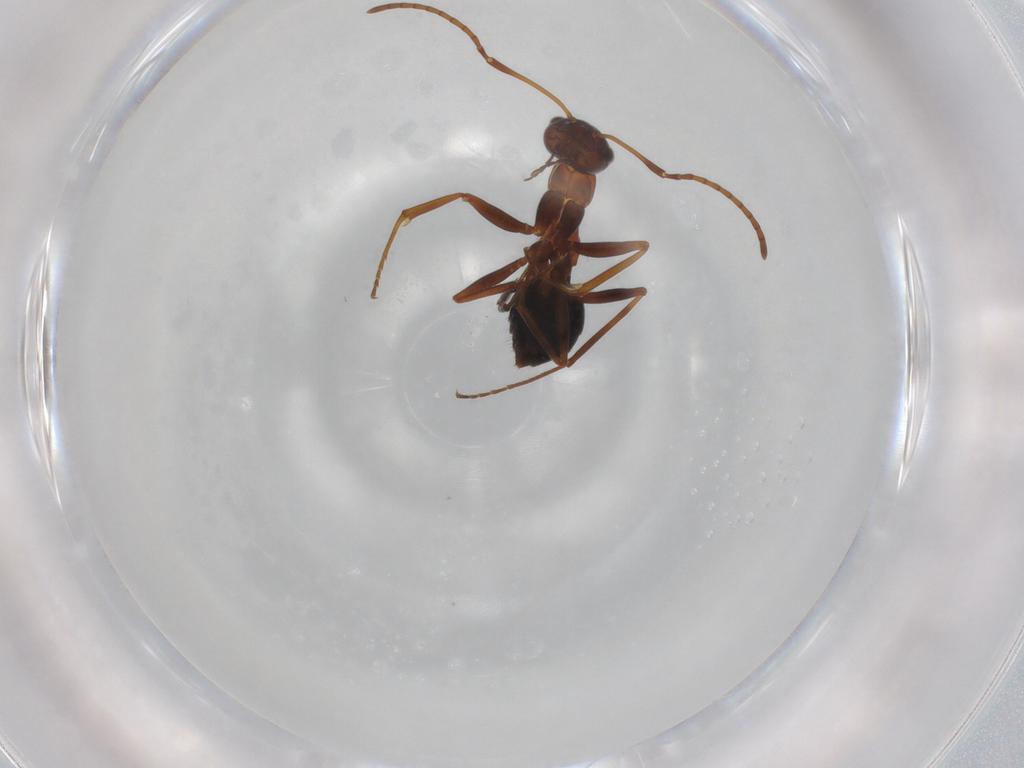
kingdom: Animalia
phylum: Arthropoda
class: Insecta
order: Hymenoptera
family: Formicidae
